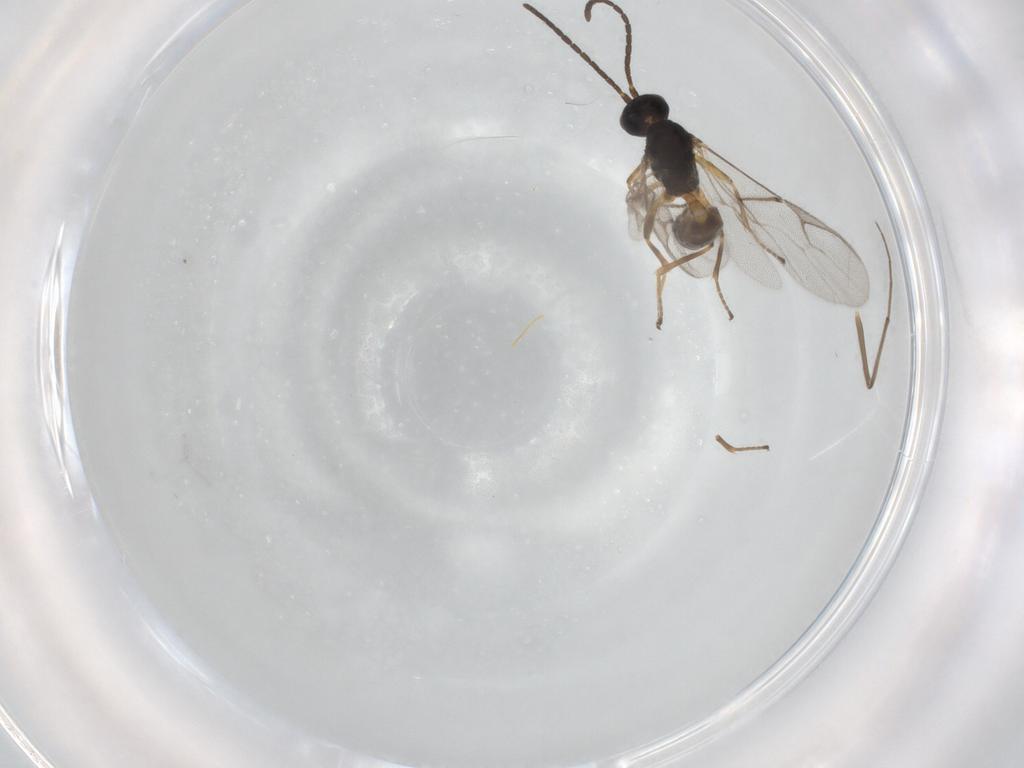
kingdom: Animalia
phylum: Arthropoda
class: Insecta
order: Hymenoptera
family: Braconidae
